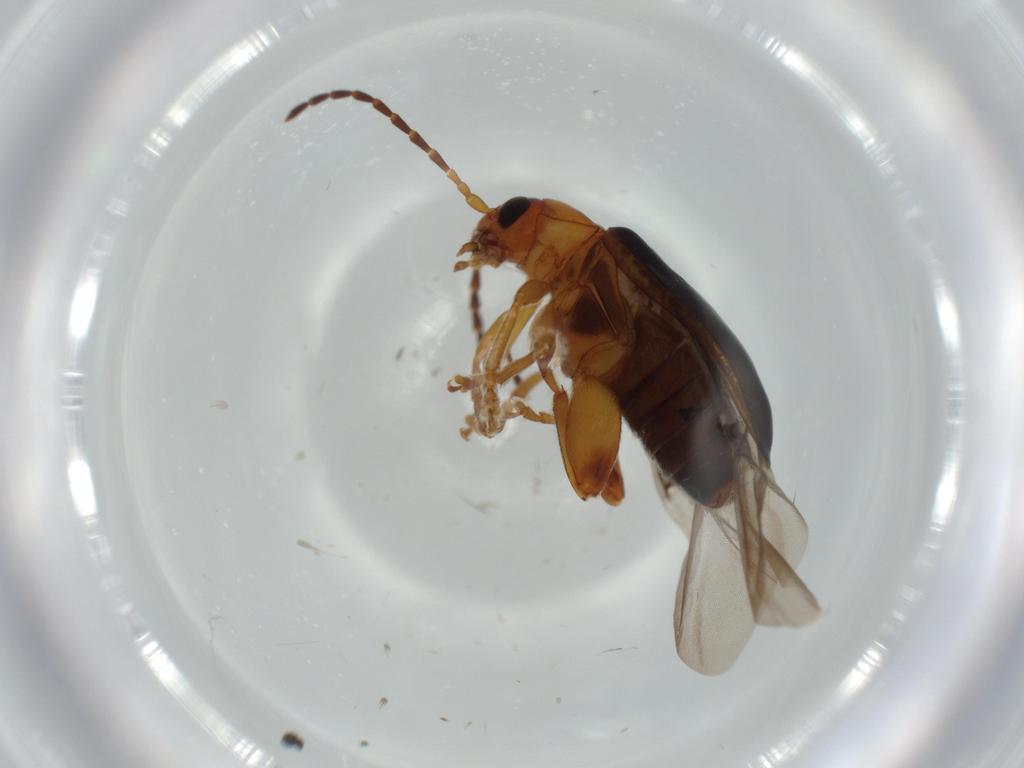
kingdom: Animalia
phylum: Arthropoda
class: Insecta
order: Coleoptera
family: Chrysomelidae
